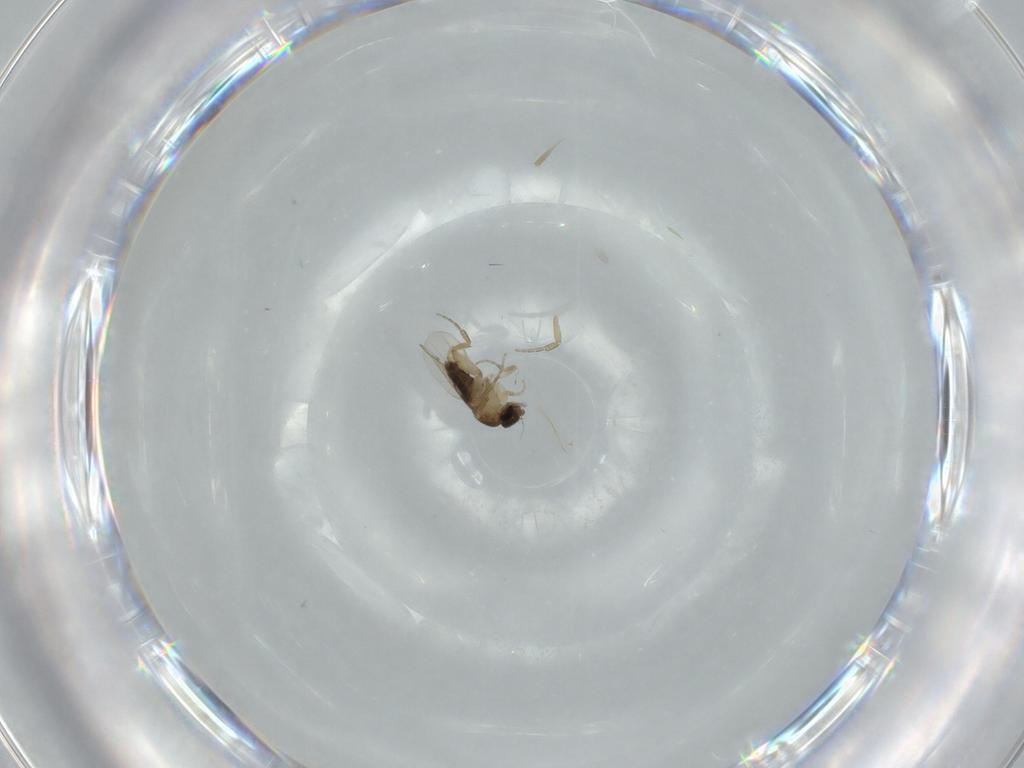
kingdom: Animalia
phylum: Arthropoda
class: Insecta
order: Diptera
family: Phoridae
